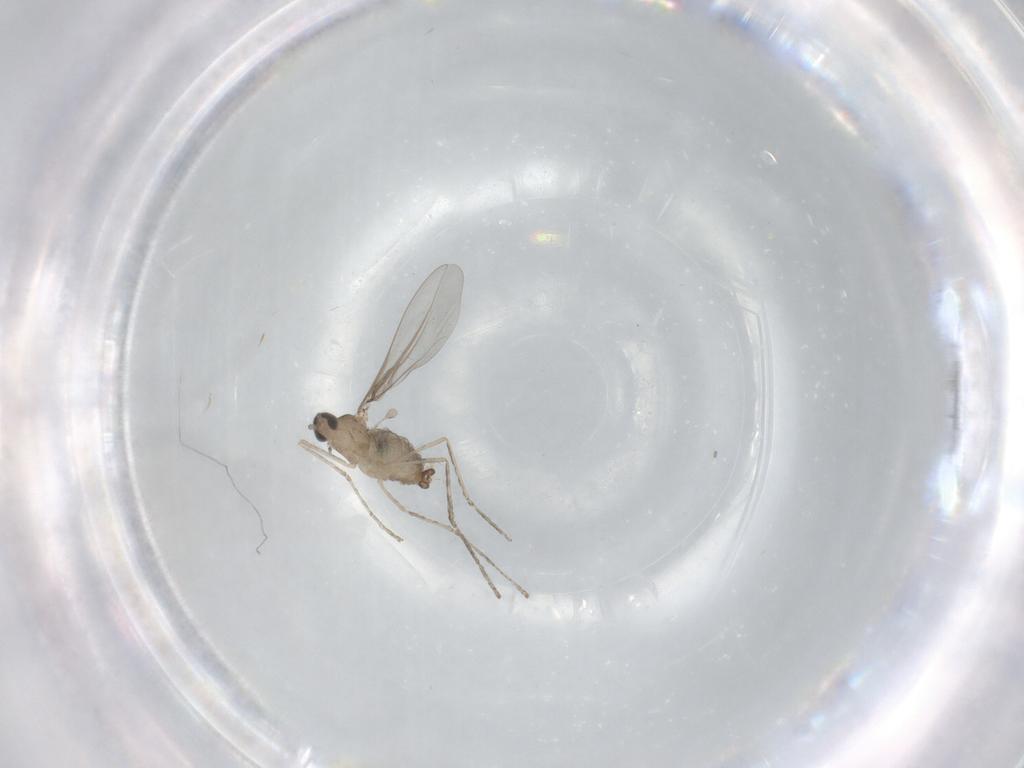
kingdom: Animalia
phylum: Arthropoda
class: Insecta
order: Diptera
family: Cecidomyiidae
